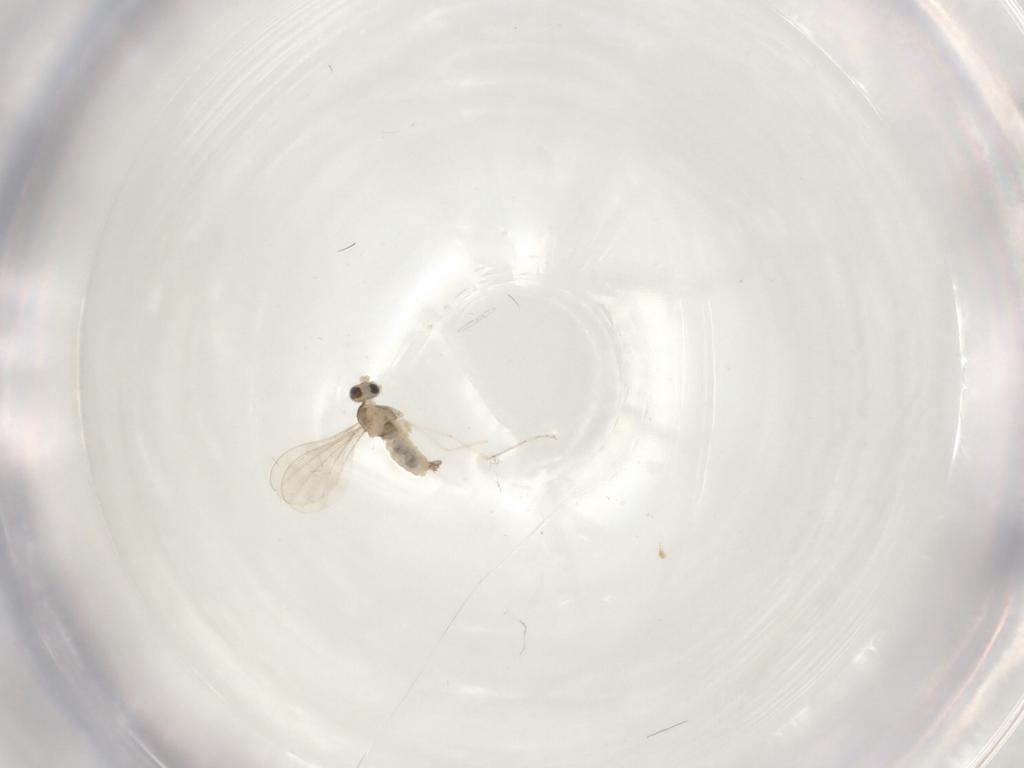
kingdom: Animalia
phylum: Arthropoda
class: Insecta
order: Diptera
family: Cecidomyiidae
